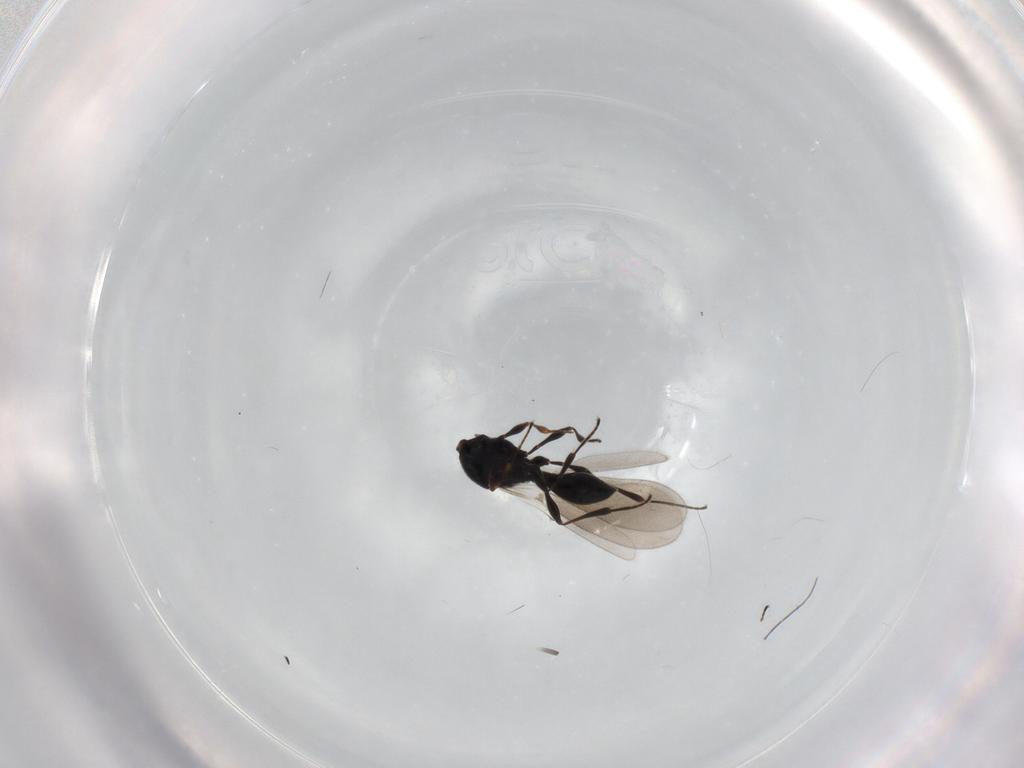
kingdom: Animalia
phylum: Arthropoda
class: Insecta
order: Hymenoptera
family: Platygastridae
